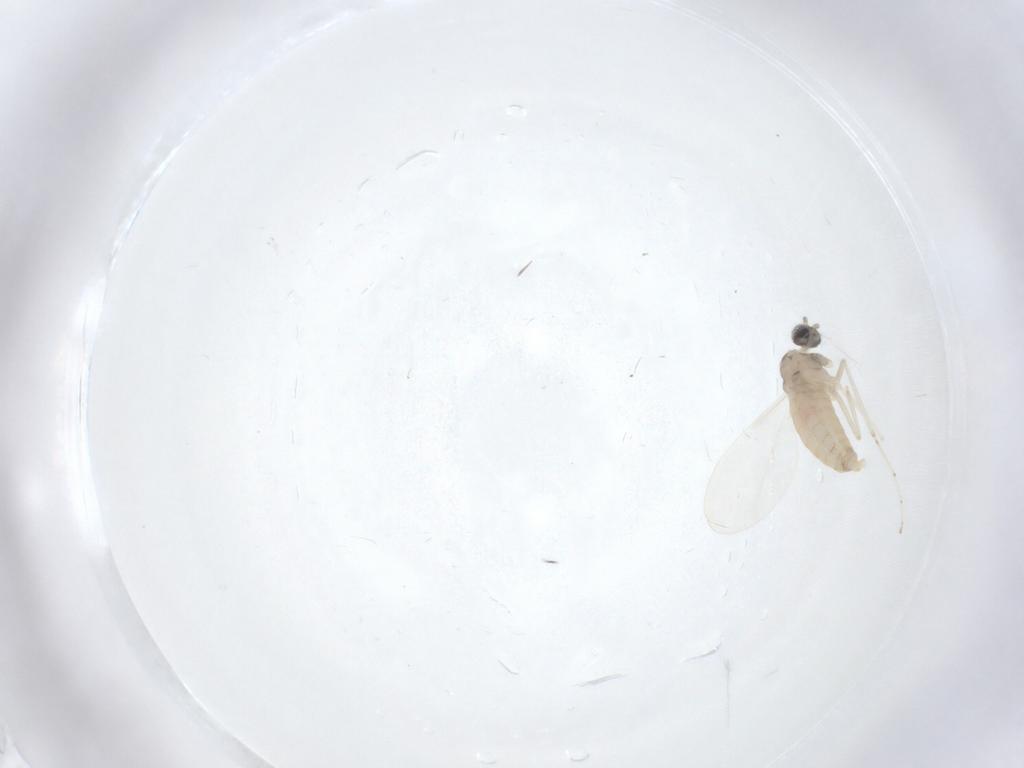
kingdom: Animalia
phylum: Arthropoda
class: Insecta
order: Diptera
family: Cecidomyiidae
